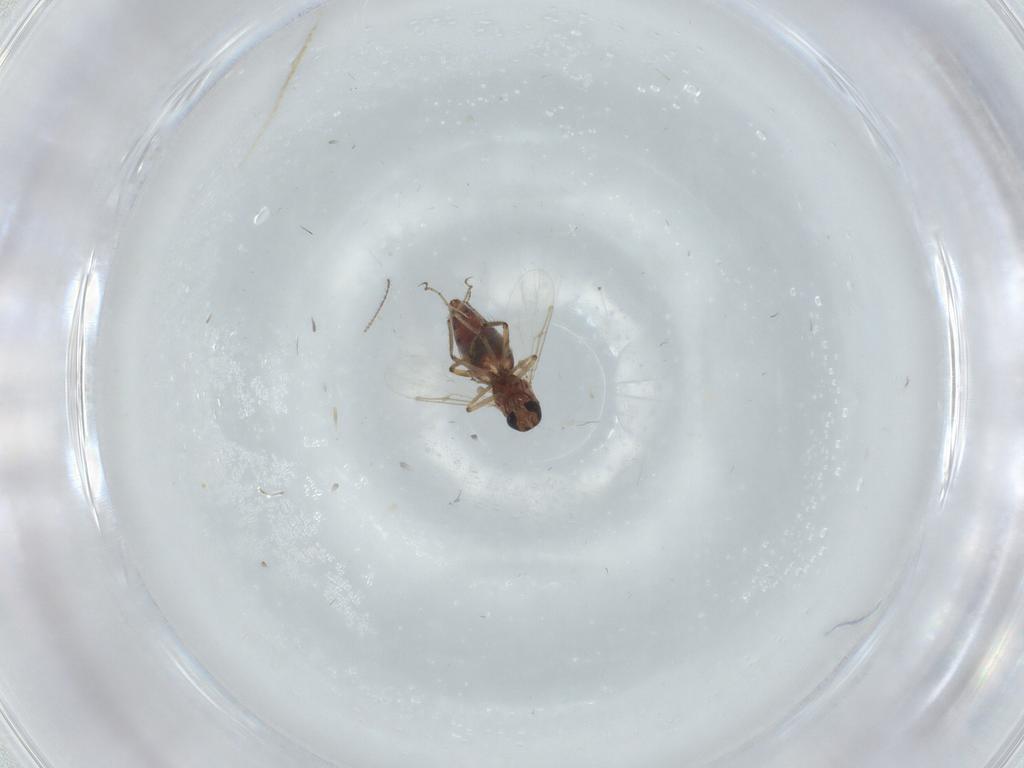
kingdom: Animalia
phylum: Arthropoda
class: Insecta
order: Diptera
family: Ceratopogonidae
